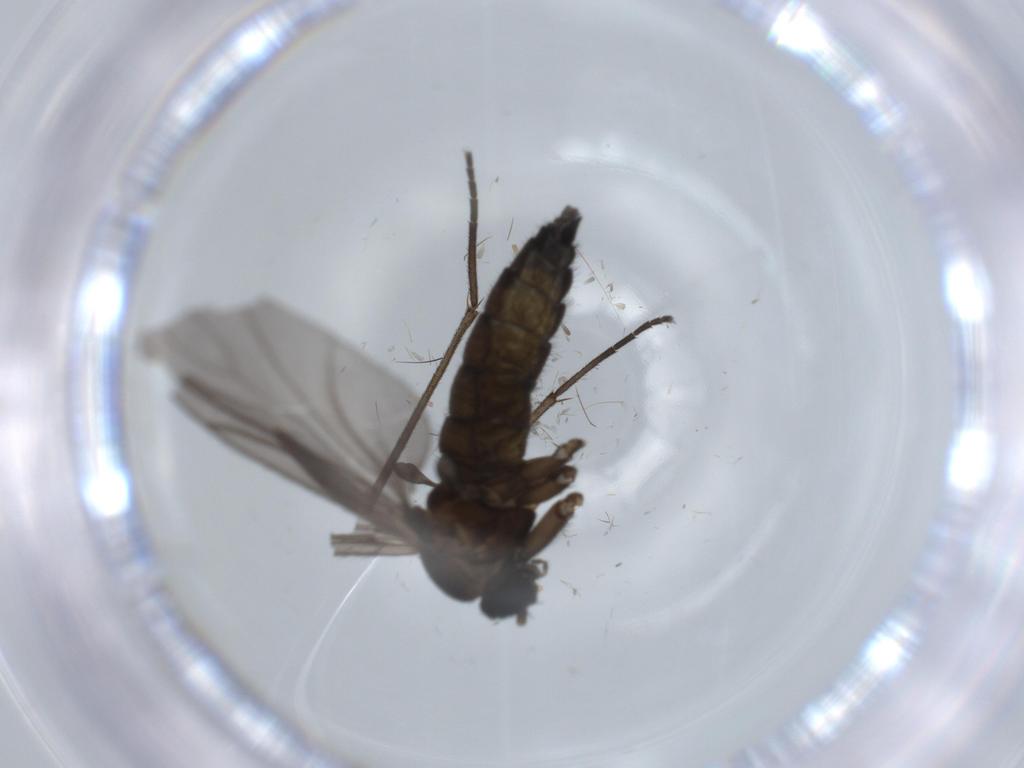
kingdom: Animalia
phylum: Arthropoda
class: Insecta
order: Diptera
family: Sciaridae
